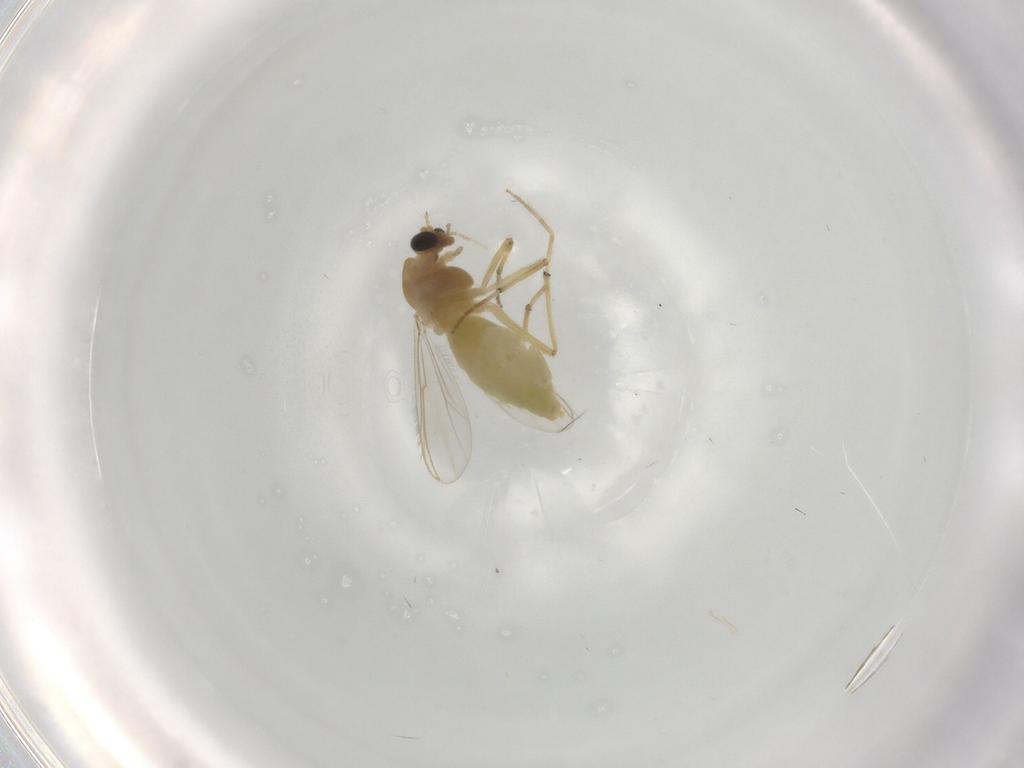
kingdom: Animalia
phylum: Arthropoda
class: Insecta
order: Diptera
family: Chironomidae
